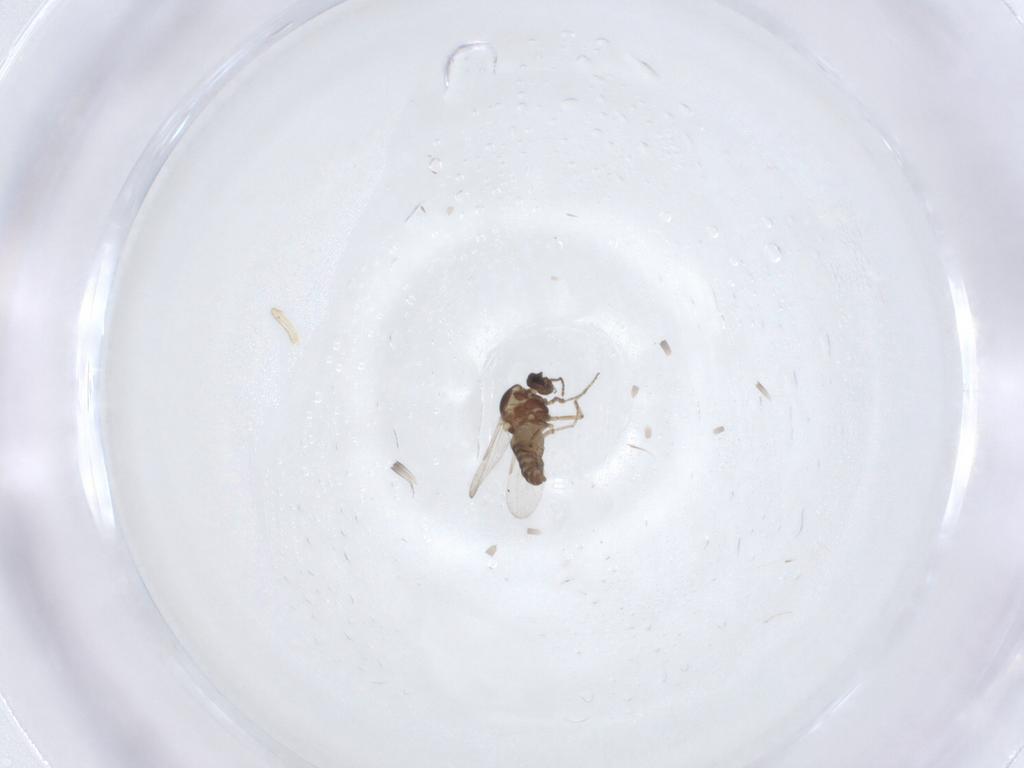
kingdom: Animalia
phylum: Arthropoda
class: Insecta
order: Diptera
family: Ceratopogonidae
